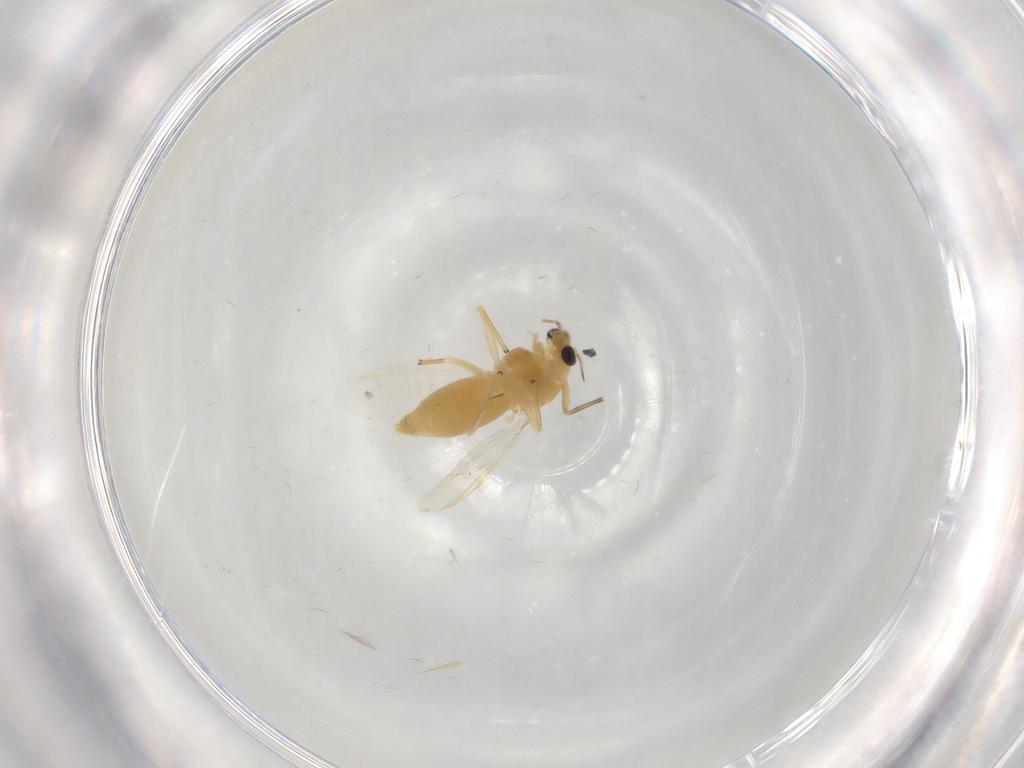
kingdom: Animalia
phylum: Arthropoda
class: Insecta
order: Diptera
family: Chironomidae
